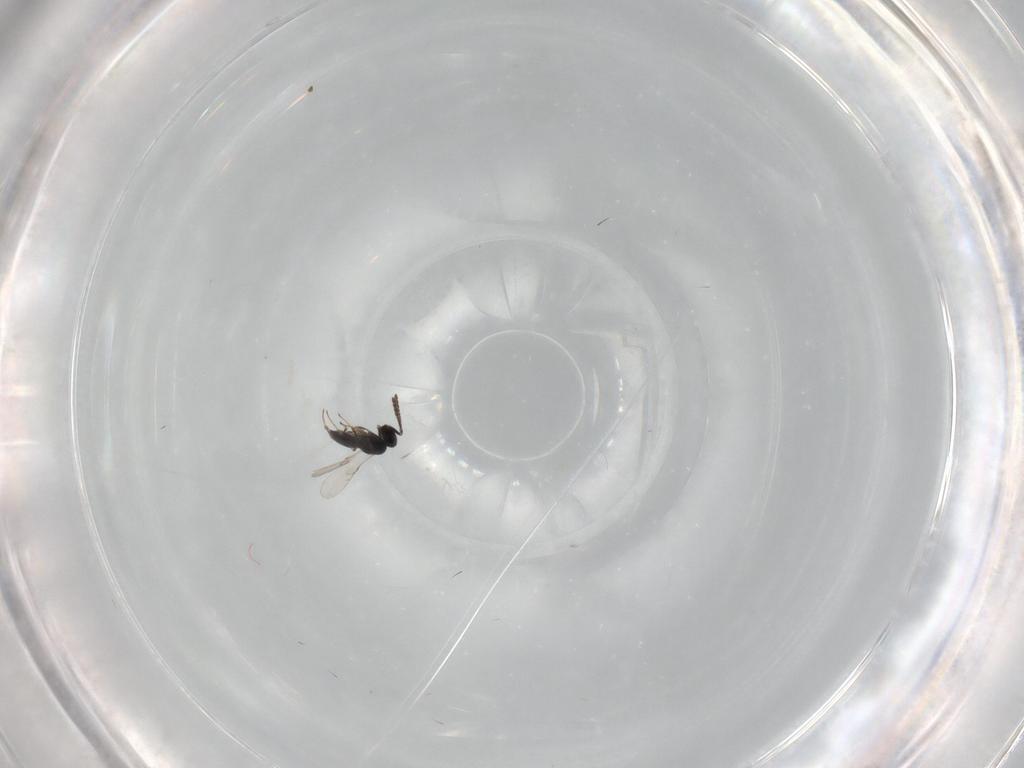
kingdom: Animalia
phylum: Arthropoda
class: Insecta
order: Hymenoptera
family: Scelionidae
